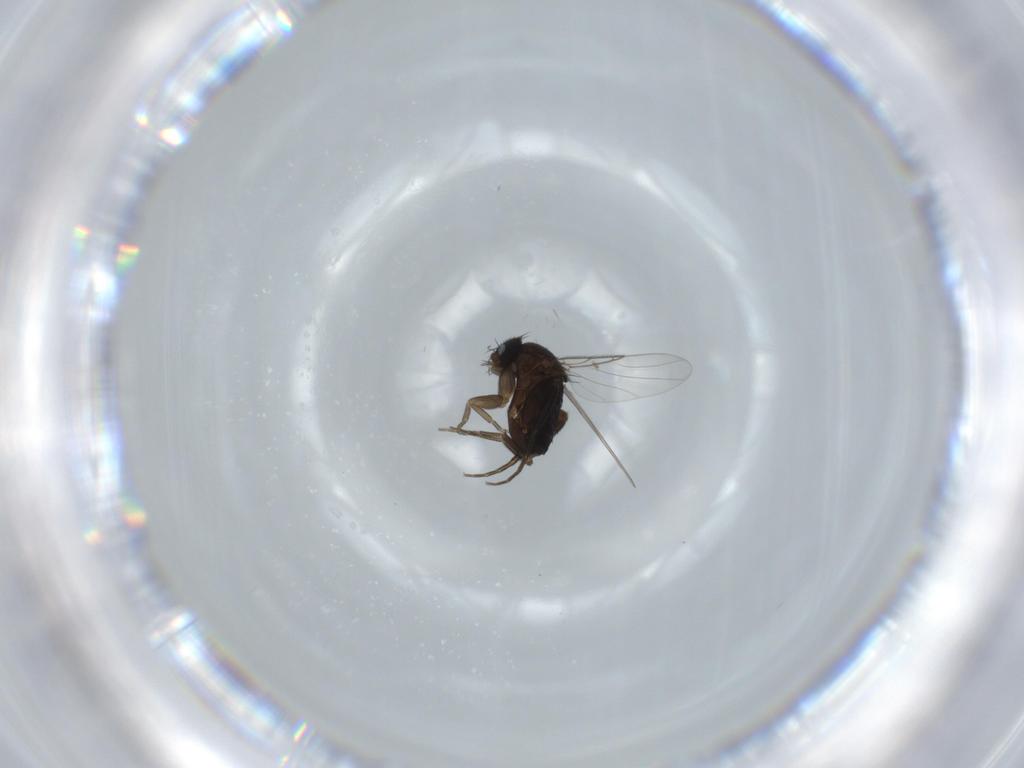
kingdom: Animalia
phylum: Arthropoda
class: Insecta
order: Diptera
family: Phoridae
